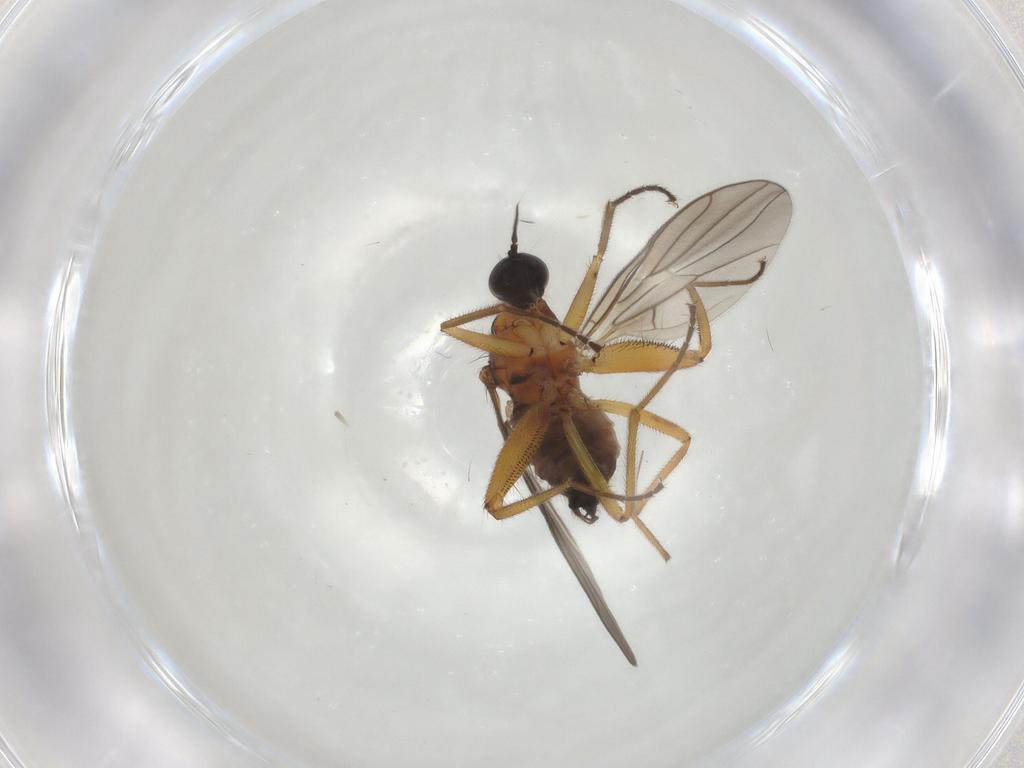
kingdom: Animalia
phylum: Arthropoda
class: Insecta
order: Diptera
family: Hybotidae
